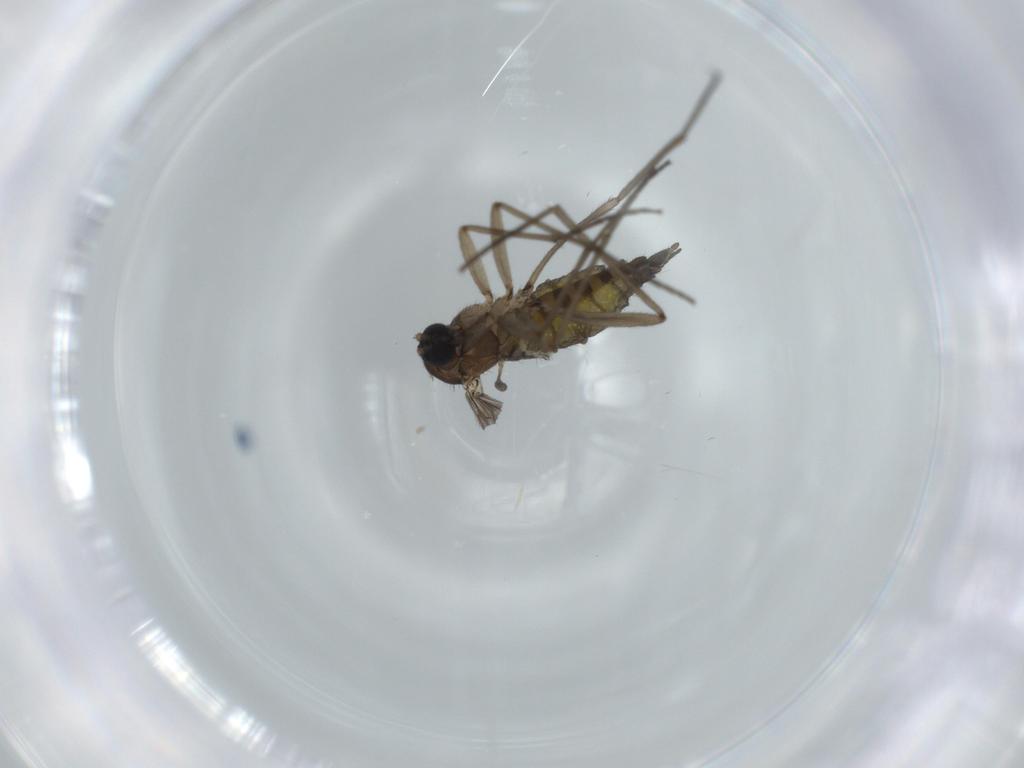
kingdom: Animalia
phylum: Arthropoda
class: Insecta
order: Diptera
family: Sciaridae
